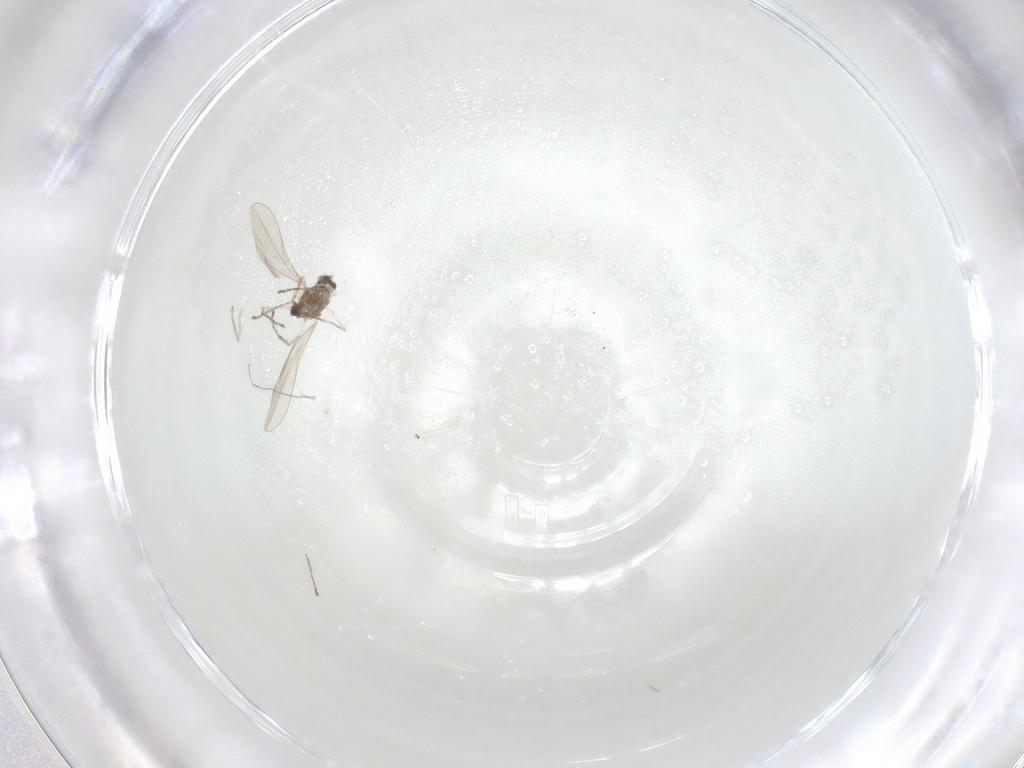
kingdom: Animalia
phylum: Arthropoda
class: Insecta
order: Diptera
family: Cecidomyiidae
